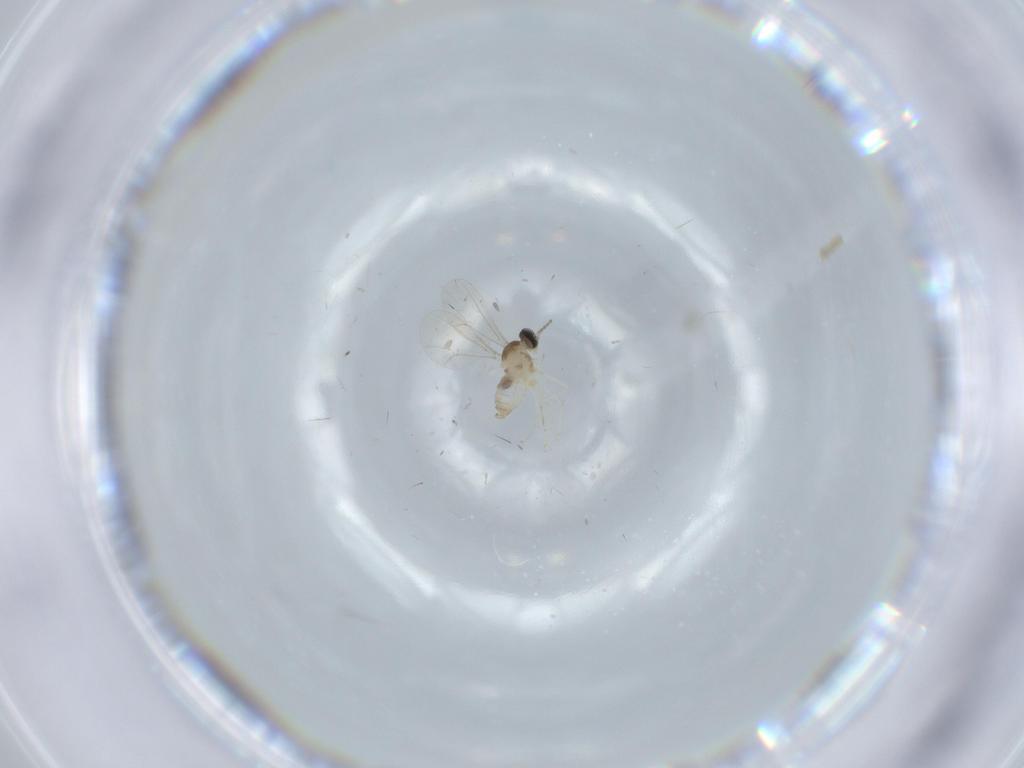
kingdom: Animalia
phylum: Arthropoda
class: Insecta
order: Diptera
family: Phoridae
